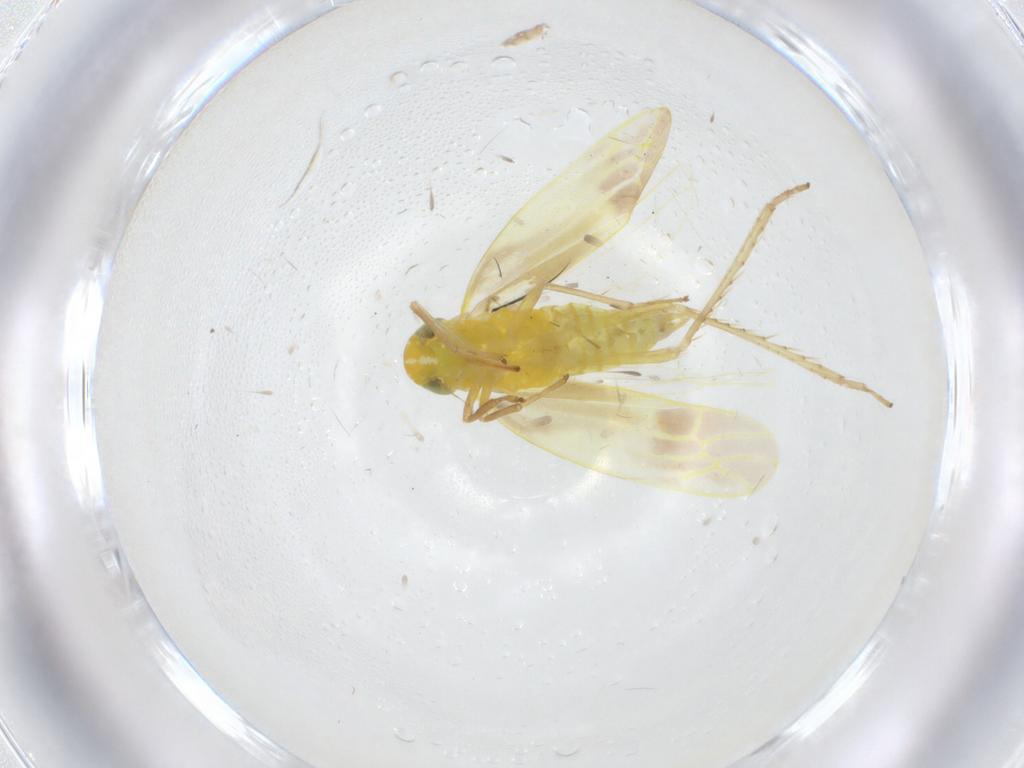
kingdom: Animalia
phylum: Arthropoda
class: Insecta
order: Hemiptera
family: Cicadellidae
